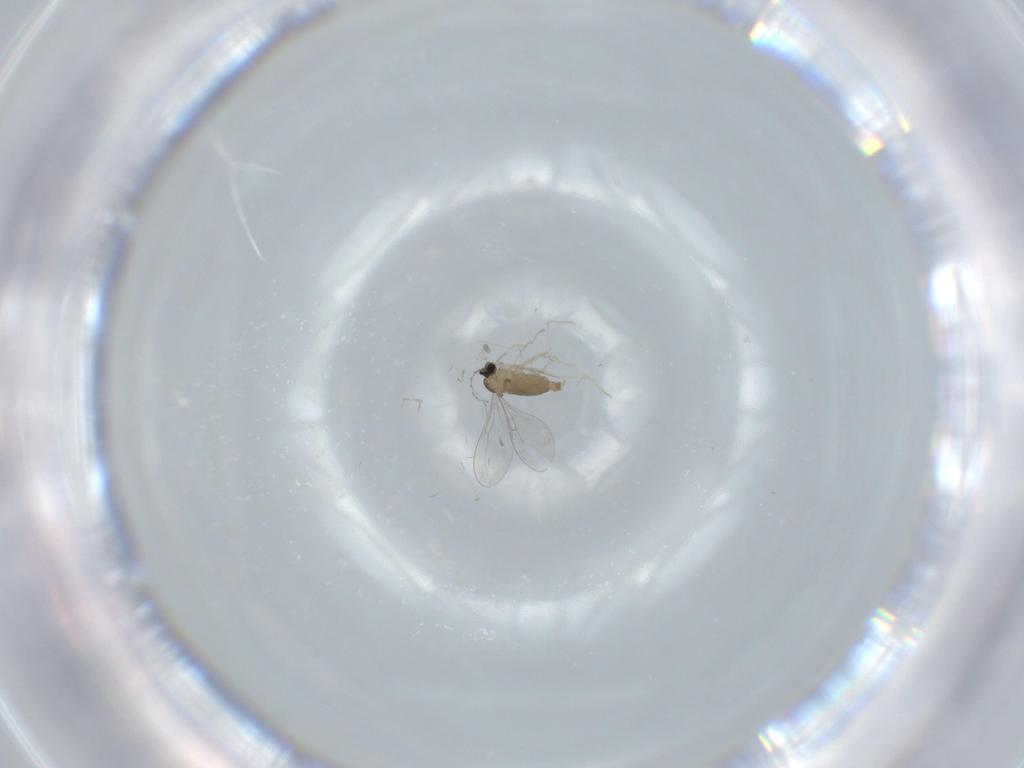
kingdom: Animalia
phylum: Arthropoda
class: Insecta
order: Diptera
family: Cecidomyiidae
